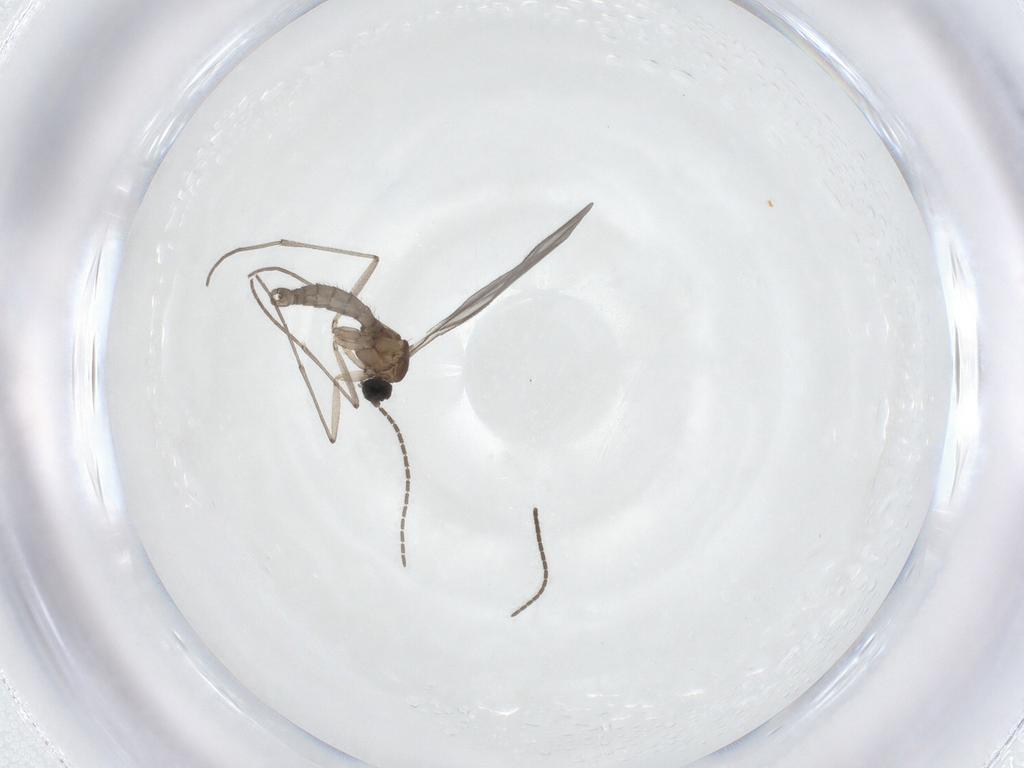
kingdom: Animalia
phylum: Arthropoda
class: Insecta
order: Diptera
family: Sciaridae
